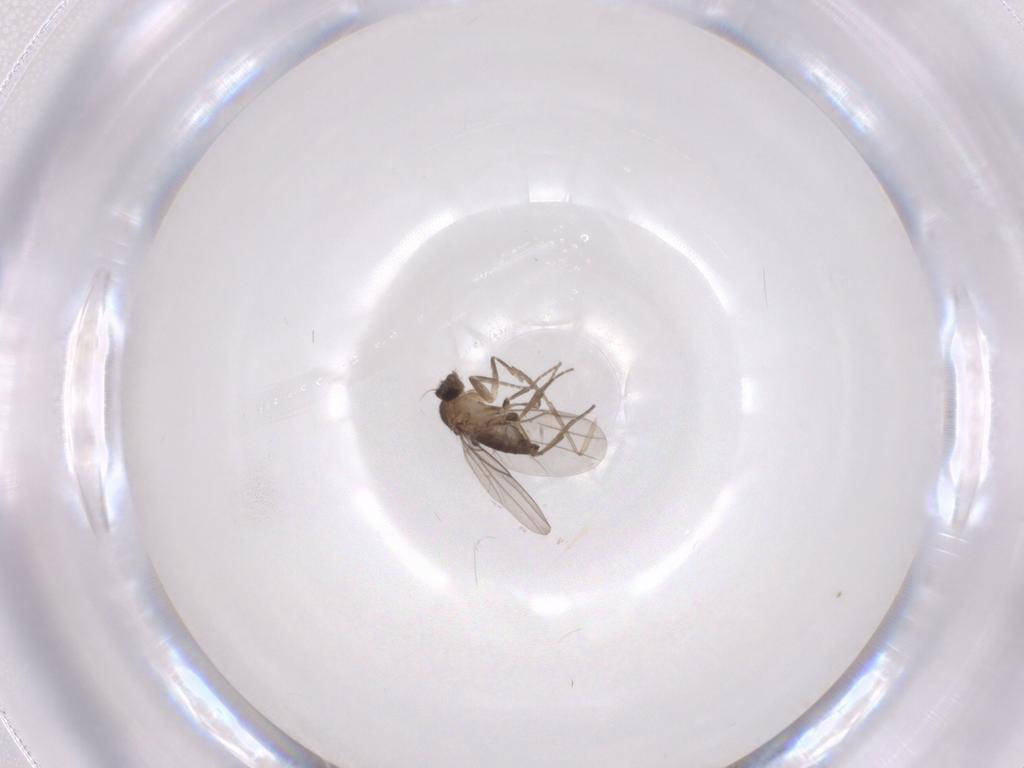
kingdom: Animalia
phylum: Arthropoda
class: Insecta
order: Diptera
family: Phoridae
